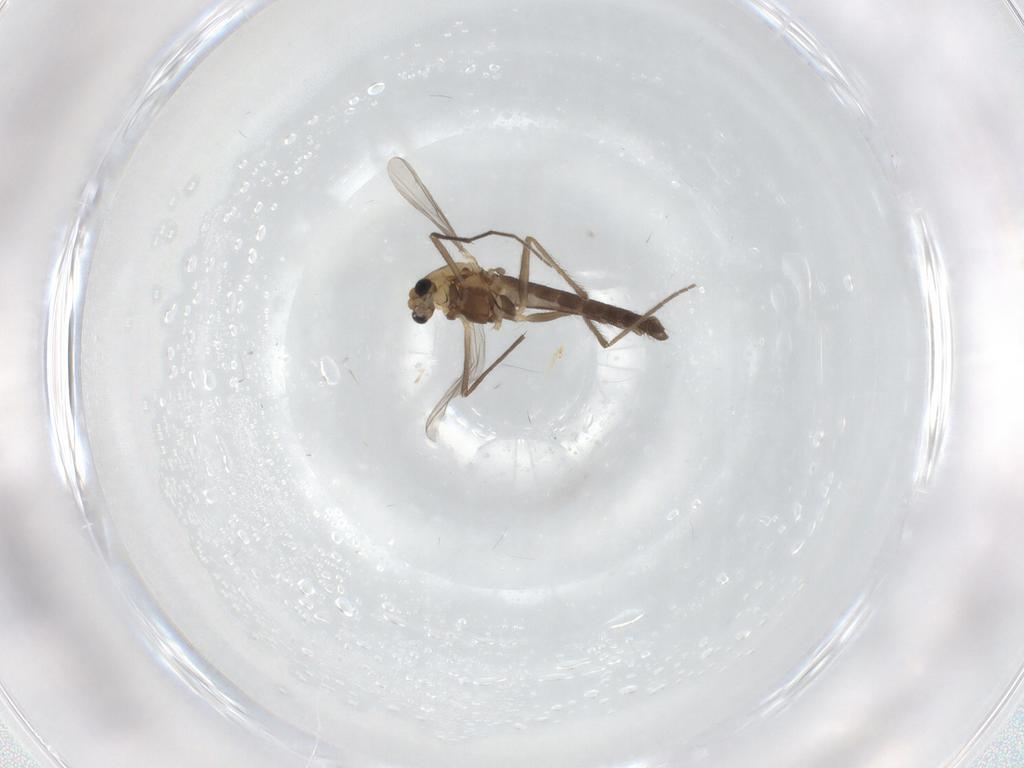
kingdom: Animalia
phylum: Arthropoda
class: Insecta
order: Diptera
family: Chironomidae
